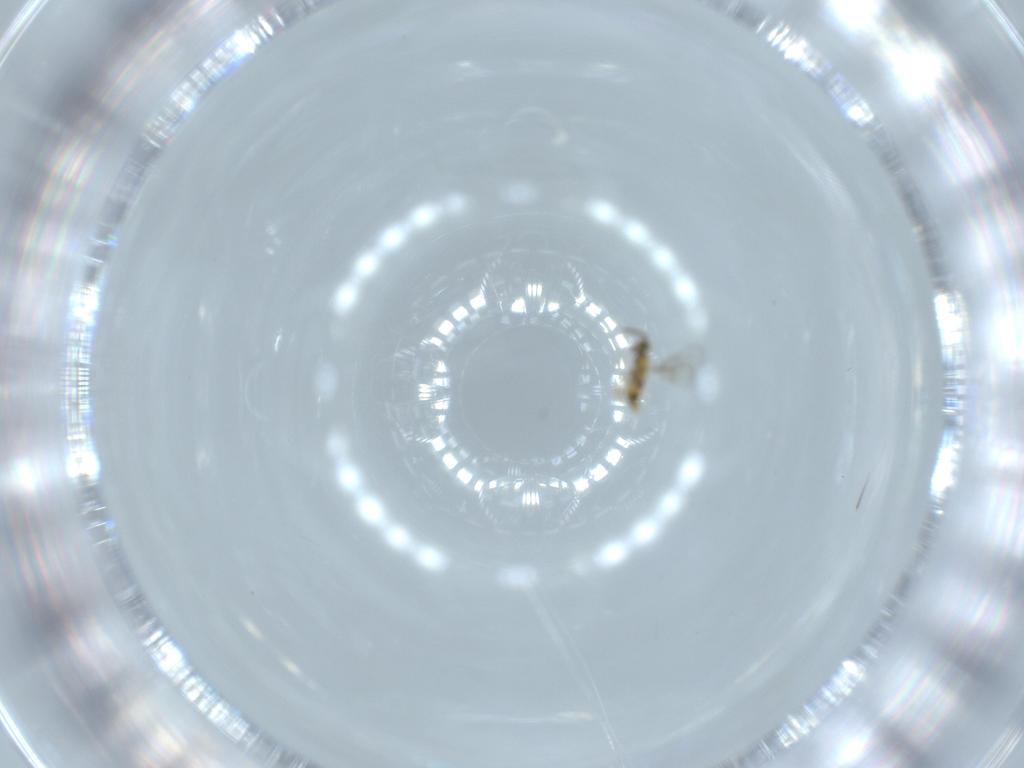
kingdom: Animalia
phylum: Arthropoda
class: Insecta
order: Hymenoptera
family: Aphelinidae
